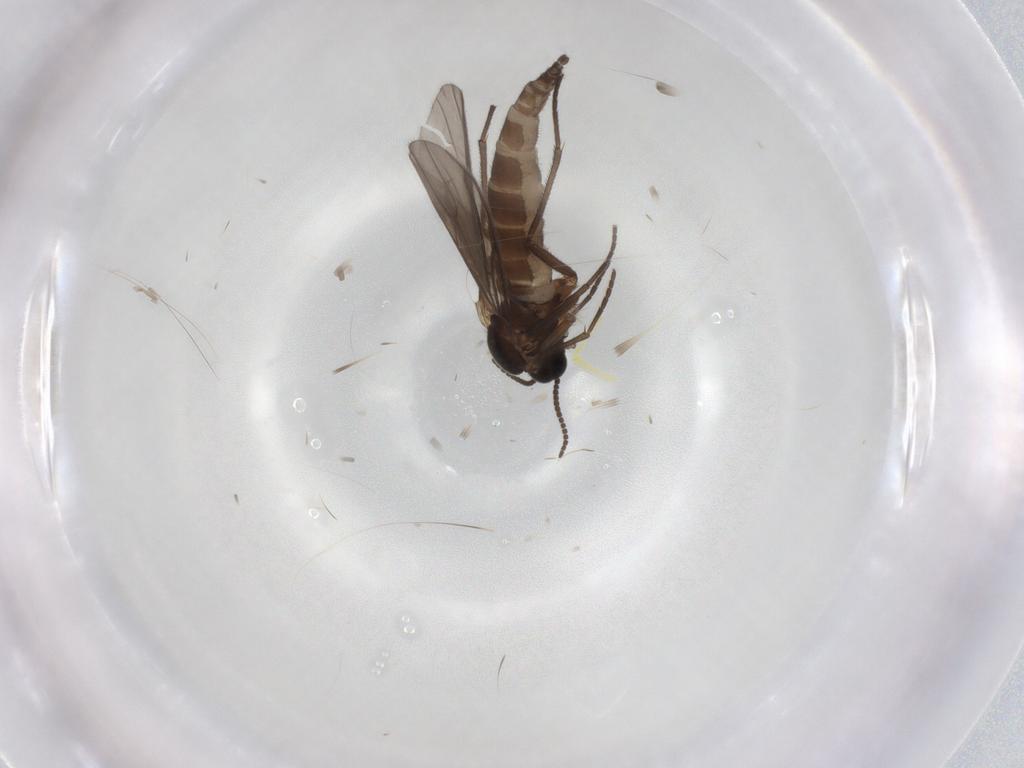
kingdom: Animalia
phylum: Arthropoda
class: Insecta
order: Diptera
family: Sciaridae
